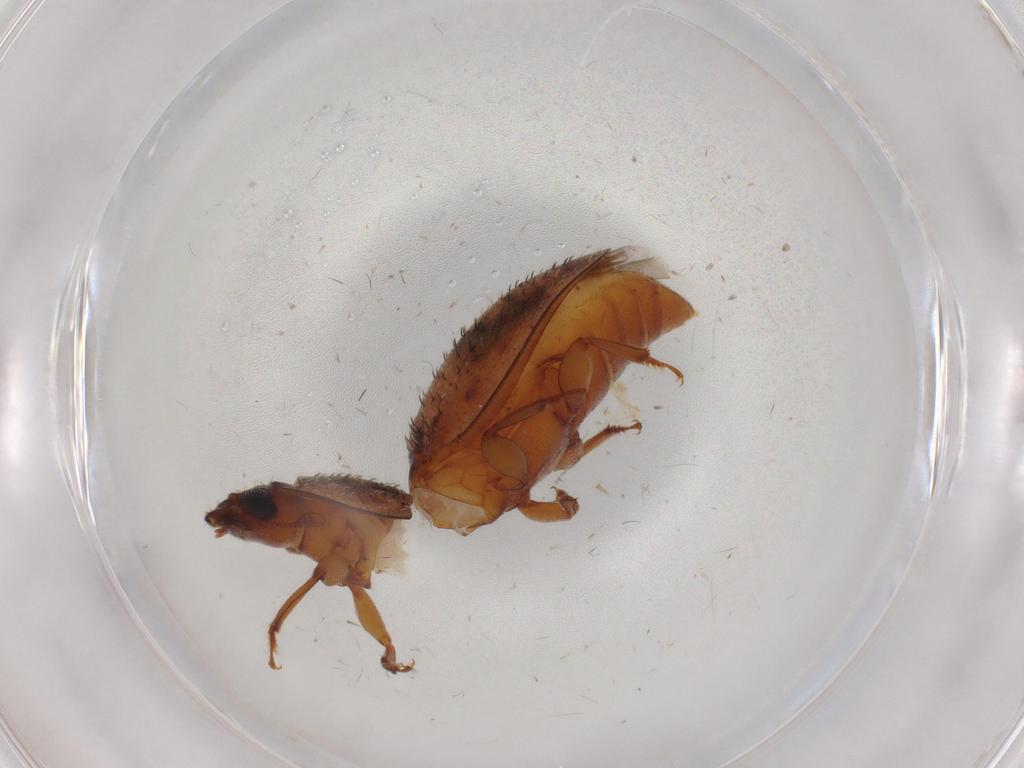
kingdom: Animalia
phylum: Arthropoda
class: Insecta
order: Coleoptera
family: Nitidulidae
